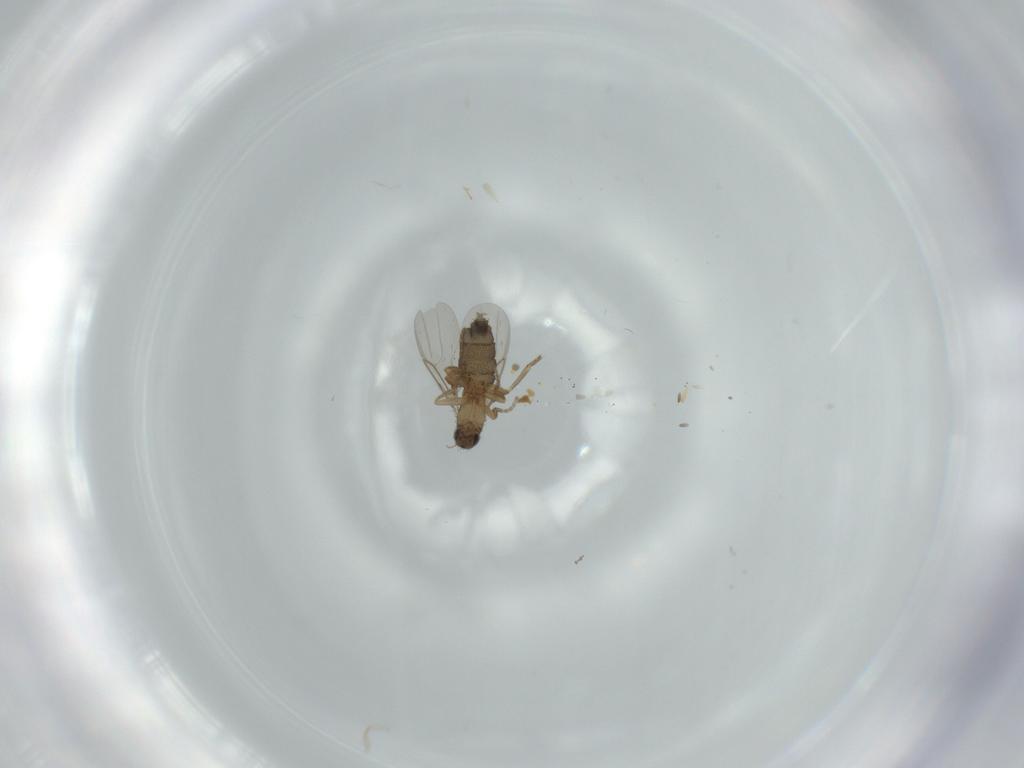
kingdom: Animalia
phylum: Arthropoda
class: Insecta
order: Diptera
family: Phoridae
